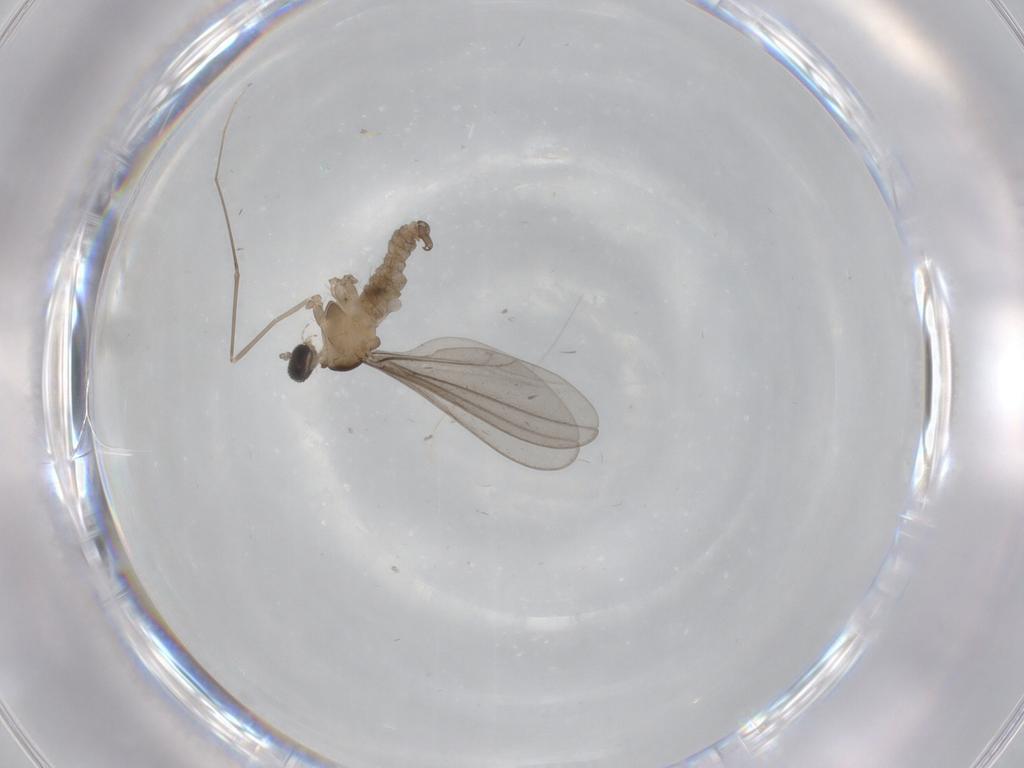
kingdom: Animalia
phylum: Arthropoda
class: Insecta
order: Diptera
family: Cecidomyiidae
